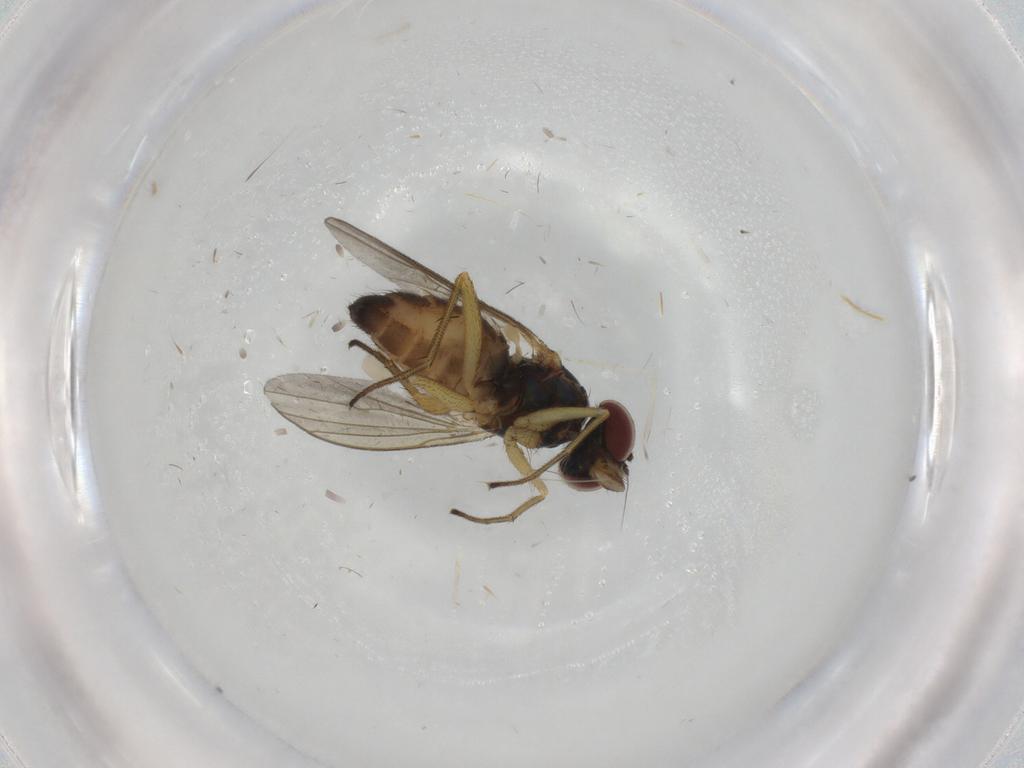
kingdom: Animalia
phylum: Arthropoda
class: Insecta
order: Diptera
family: Dolichopodidae
